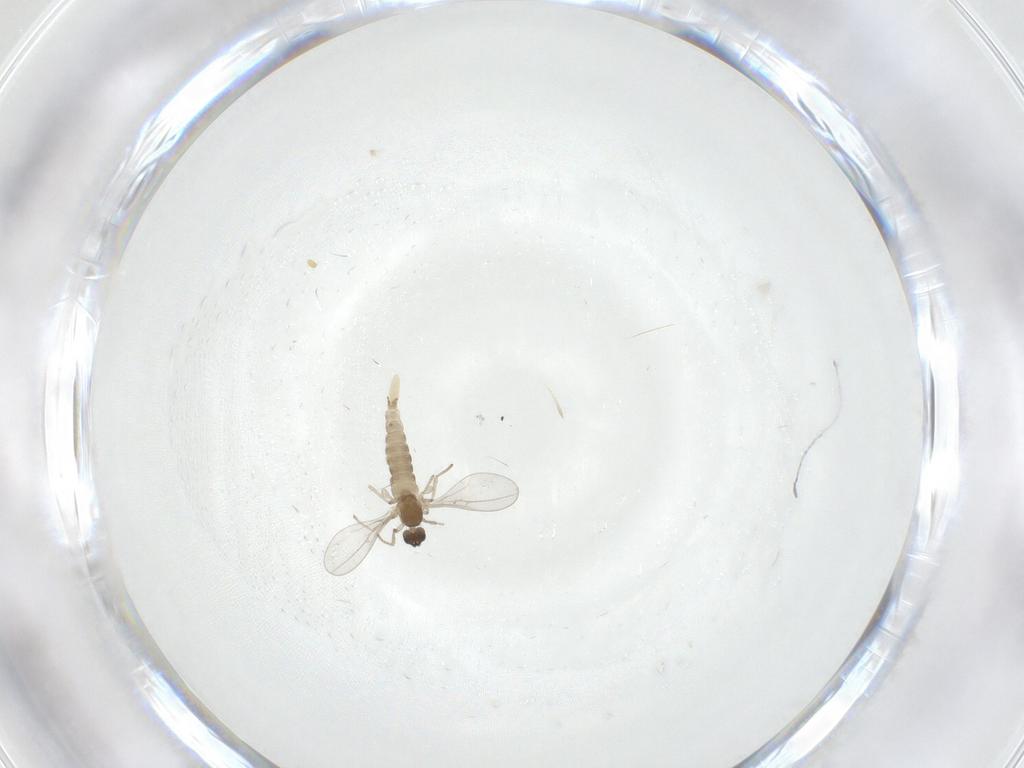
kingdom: Animalia
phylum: Arthropoda
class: Insecta
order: Diptera
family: Cecidomyiidae
